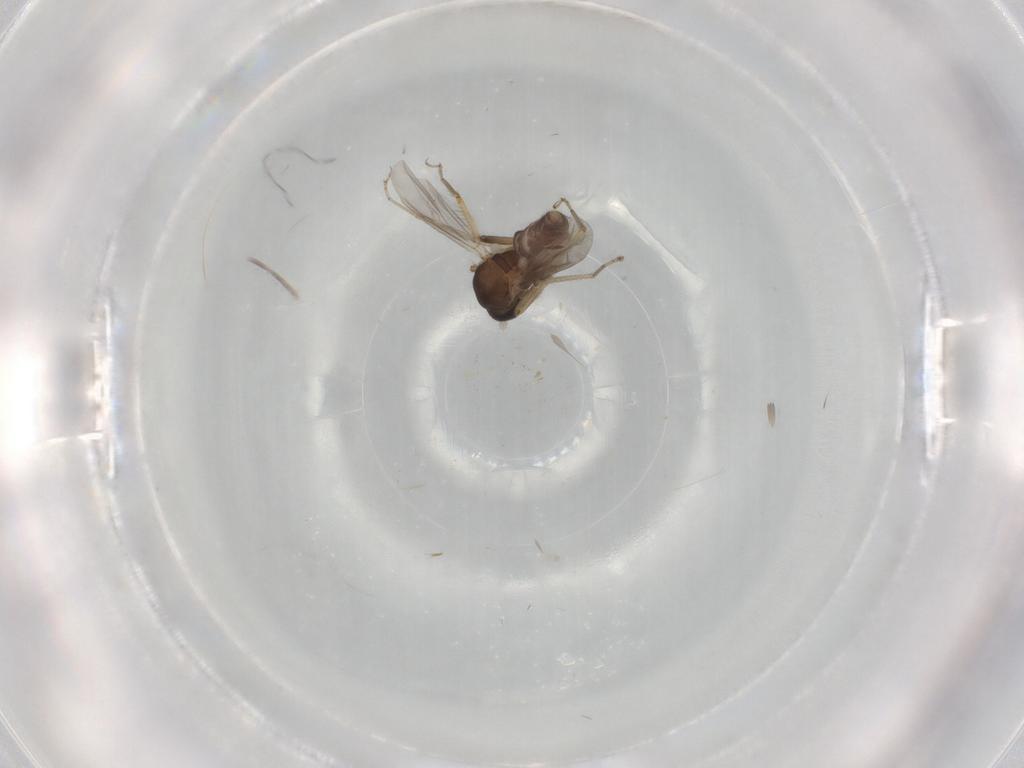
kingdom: Animalia
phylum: Arthropoda
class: Insecta
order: Diptera
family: Ceratopogonidae
